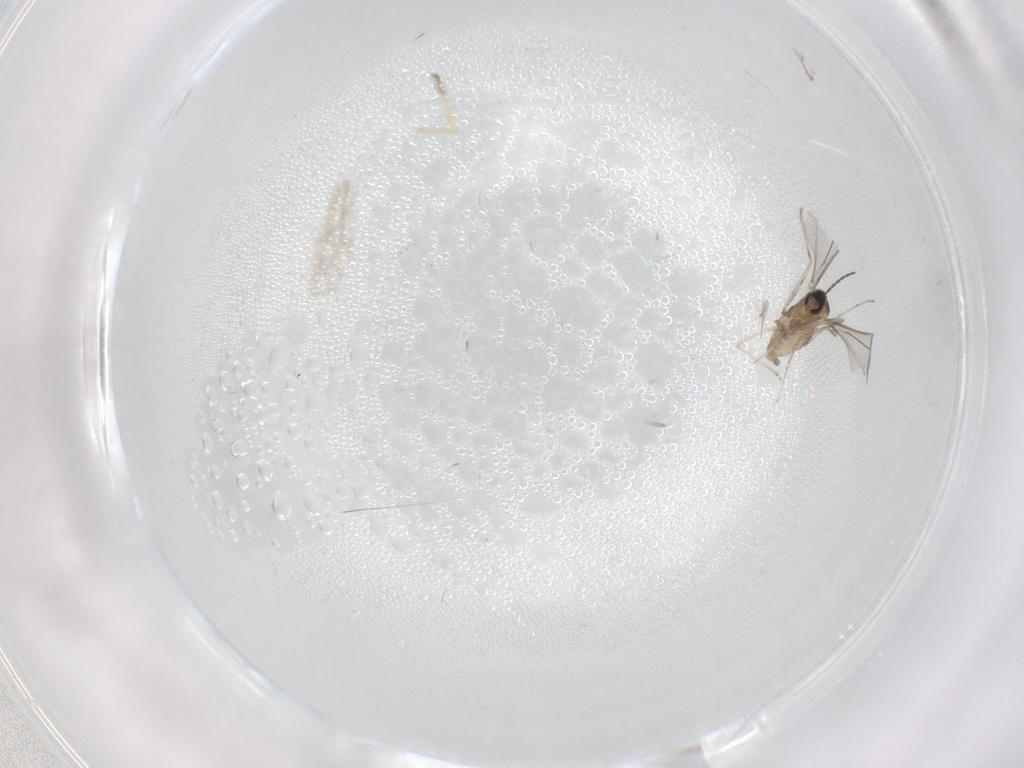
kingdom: Animalia
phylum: Arthropoda
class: Insecta
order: Diptera
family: Cecidomyiidae
